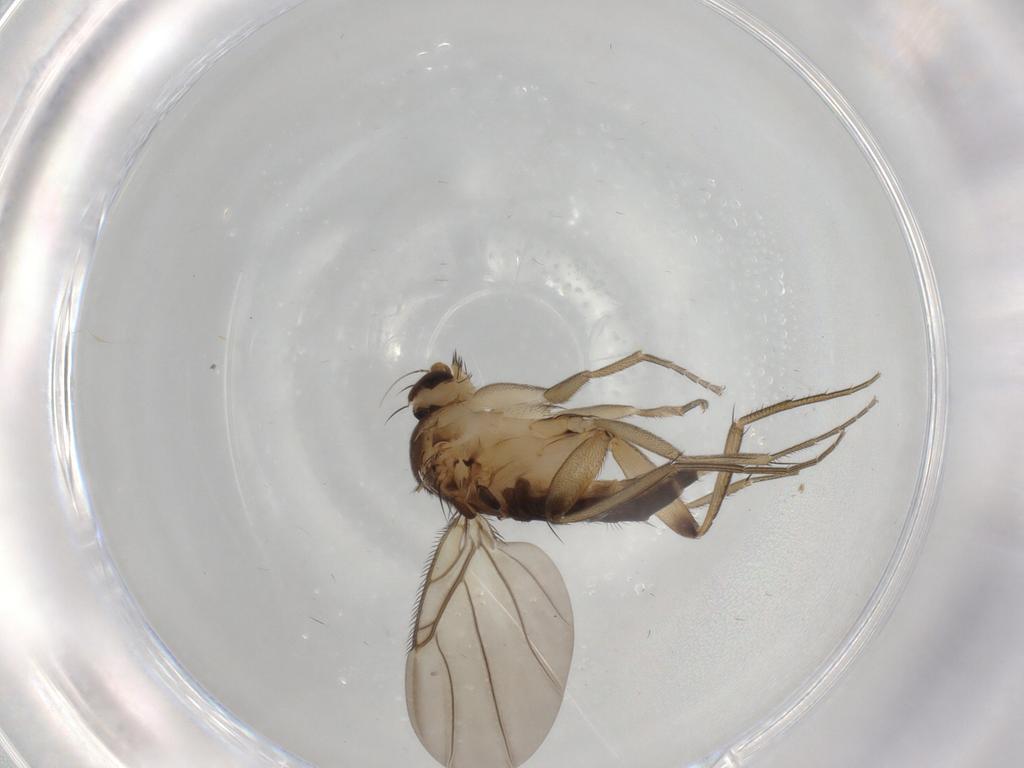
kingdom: Animalia
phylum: Arthropoda
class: Insecta
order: Diptera
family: Phoridae
